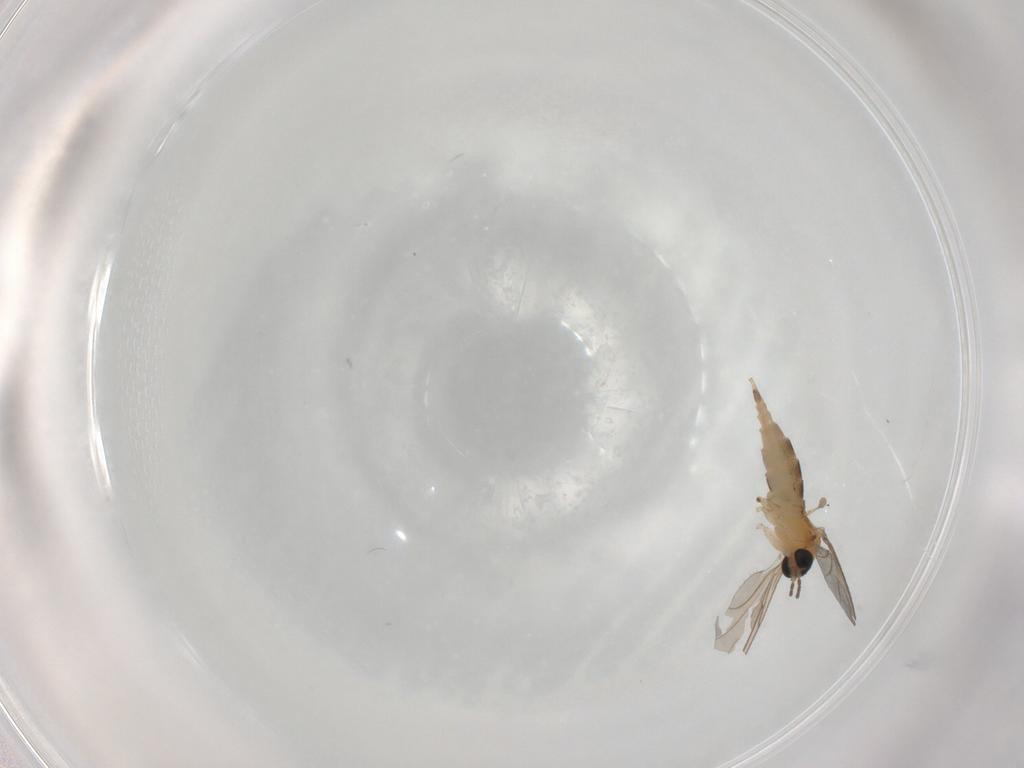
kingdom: Animalia
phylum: Arthropoda
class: Insecta
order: Diptera
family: Sciaridae
